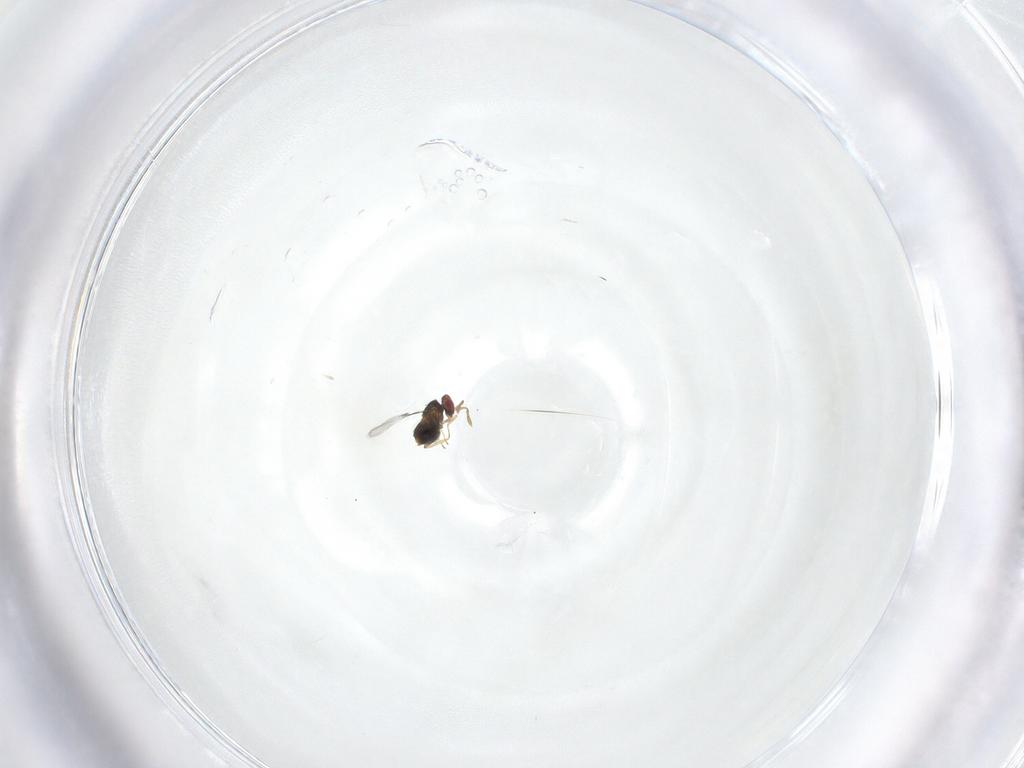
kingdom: Animalia
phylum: Arthropoda
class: Insecta
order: Hymenoptera
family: Trichogrammatidae
